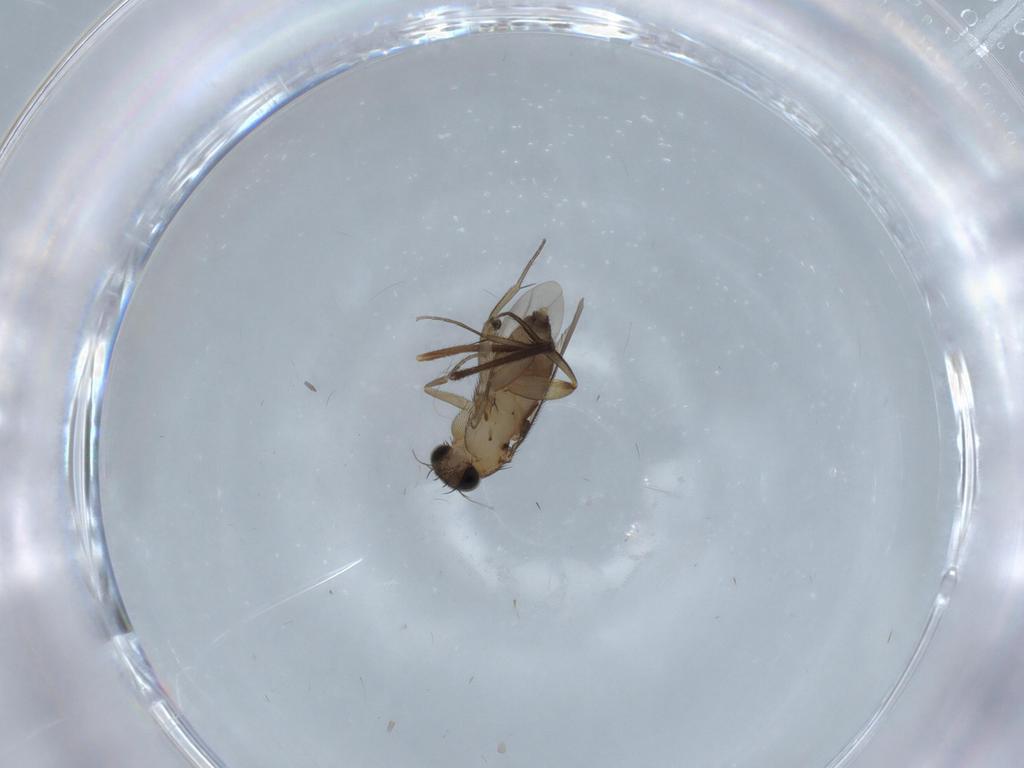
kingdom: Animalia
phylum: Arthropoda
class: Insecta
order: Diptera
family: Phoridae
